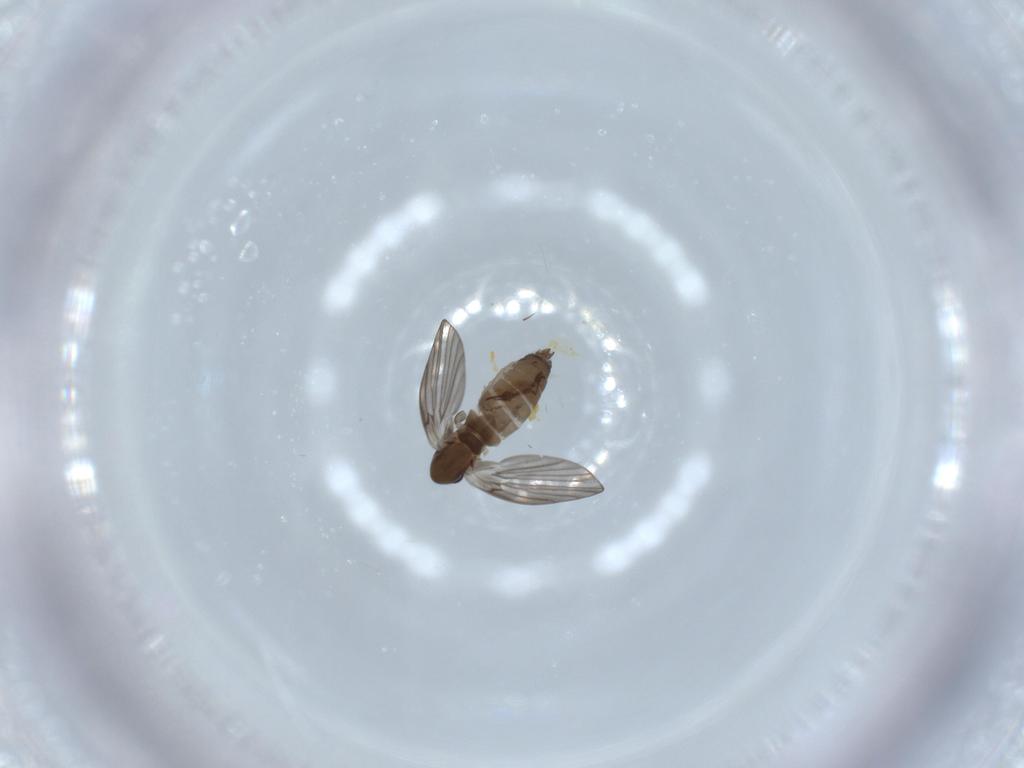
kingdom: Animalia
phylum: Arthropoda
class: Insecta
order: Diptera
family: Psychodidae
